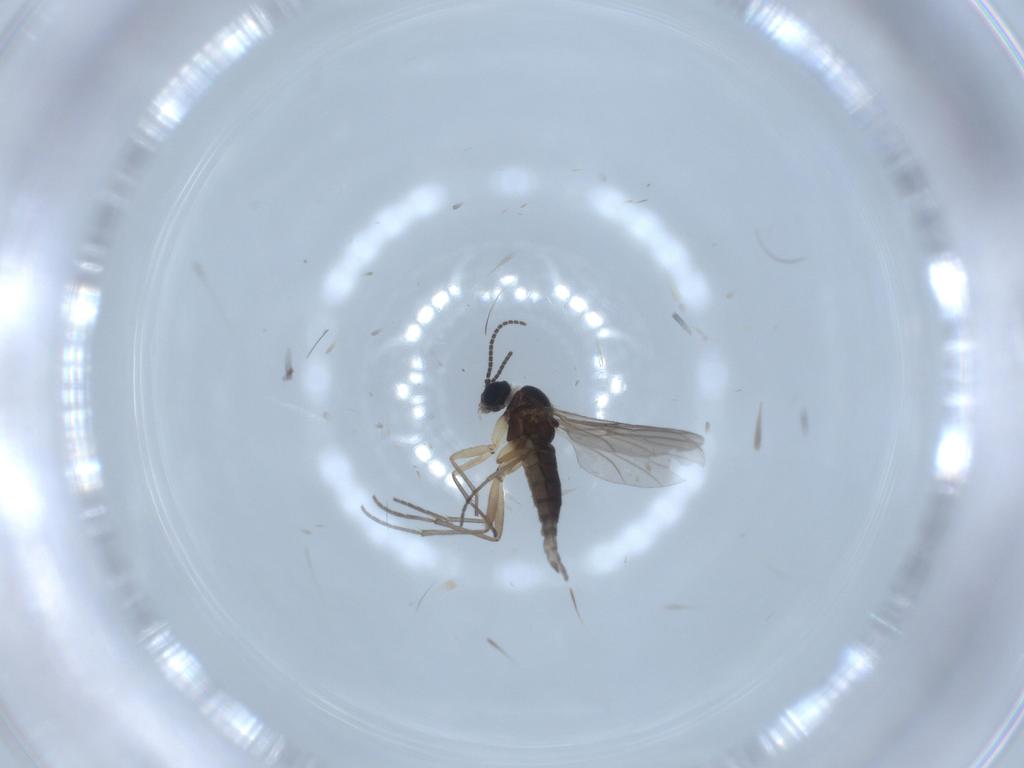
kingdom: Animalia
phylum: Arthropoda
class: Insecta
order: Diptera
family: Sciaridae
